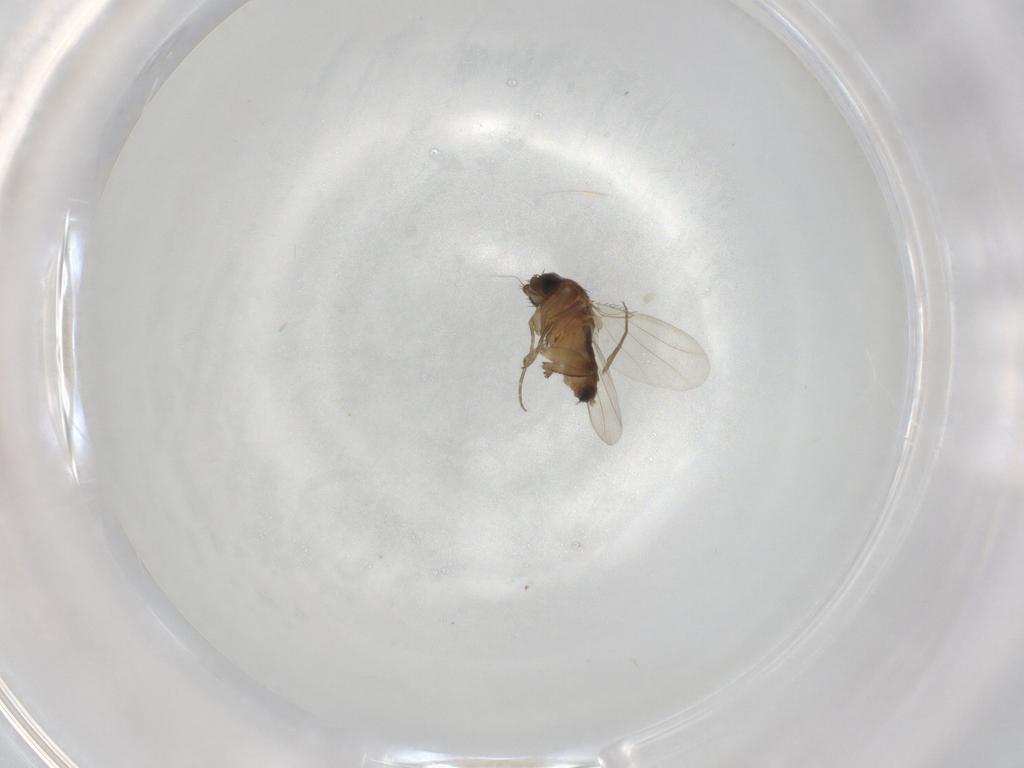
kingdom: Animalia
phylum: Arthropoda
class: Insecta
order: Diptera
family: Phoridae
